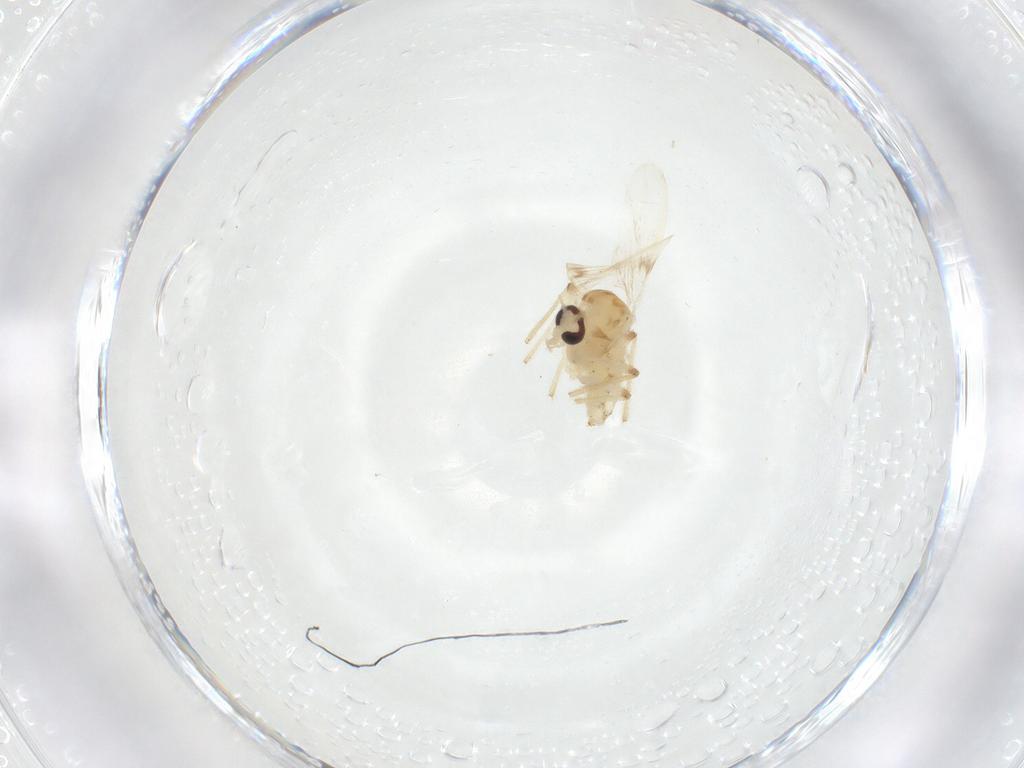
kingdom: Animalia
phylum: Arthropoda
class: Insecta
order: Diptera
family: Chironomidae
